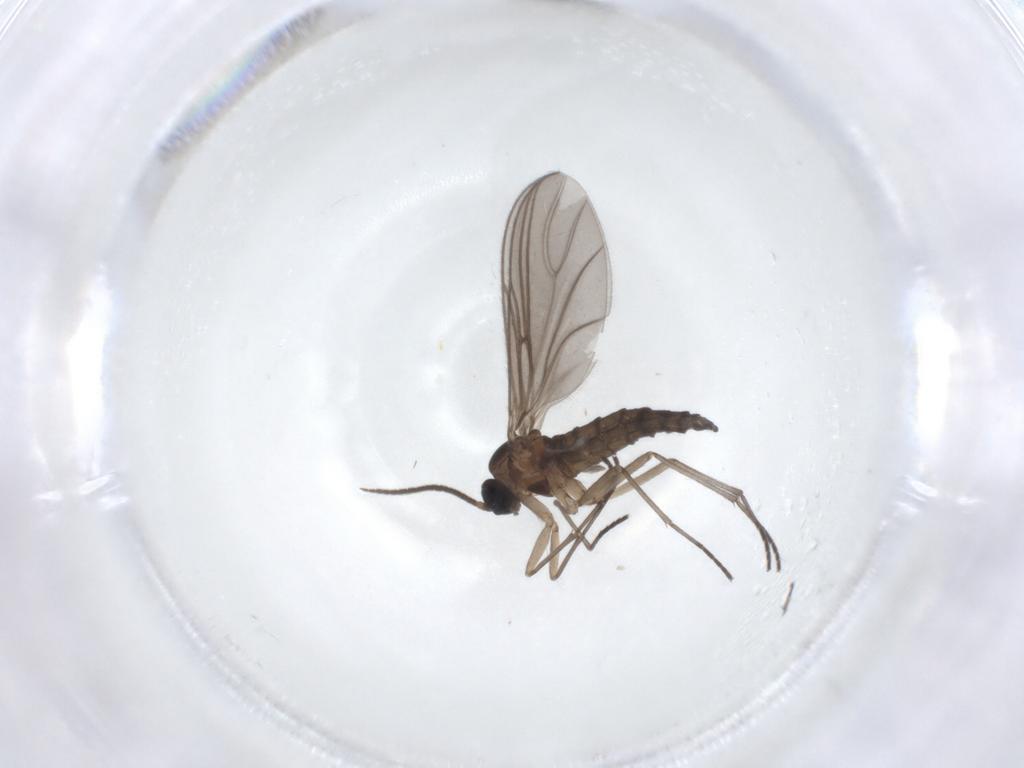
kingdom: Animalia
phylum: Arthropoda
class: Insecta
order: Diptera
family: Sciaridae
